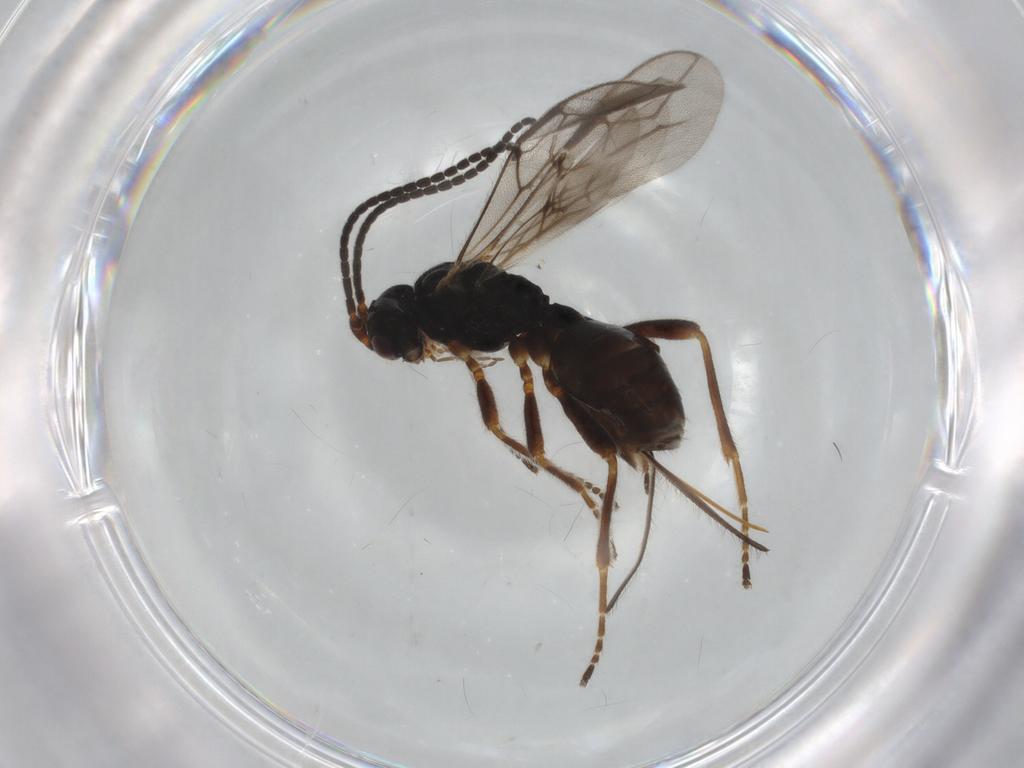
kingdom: Animalia
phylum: Arthropoda
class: Insecta
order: Hymenoptera
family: Braconidae
